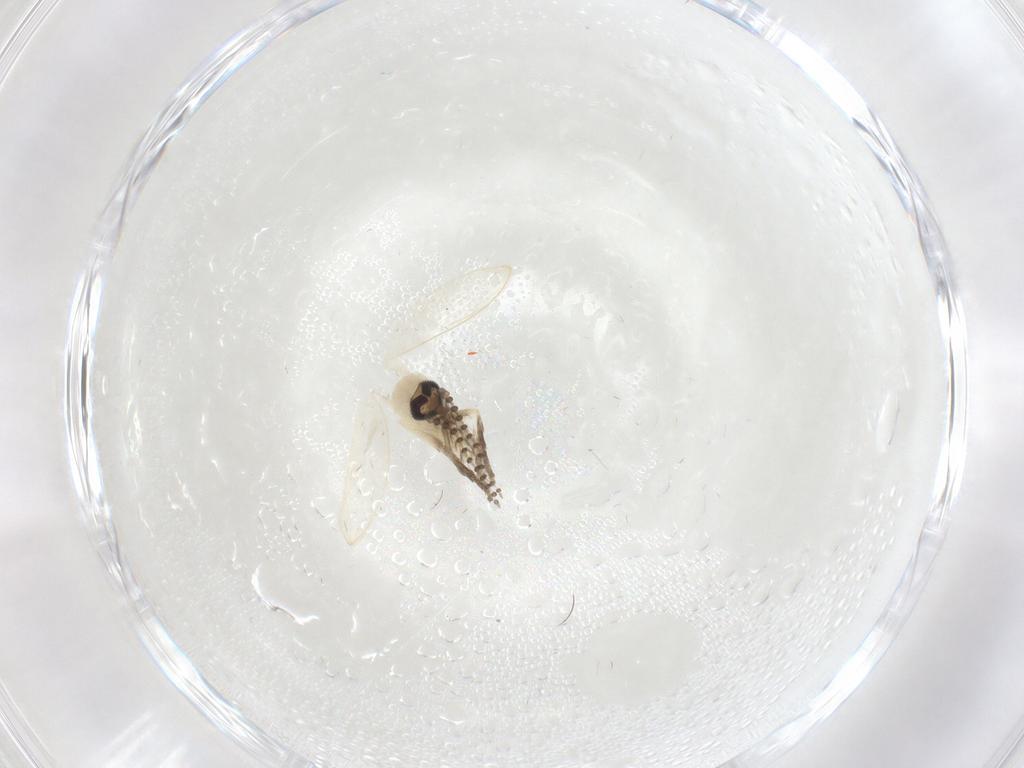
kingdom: Animalia
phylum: Arthropoda
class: Insecta
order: Diptera
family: Psychodidae
